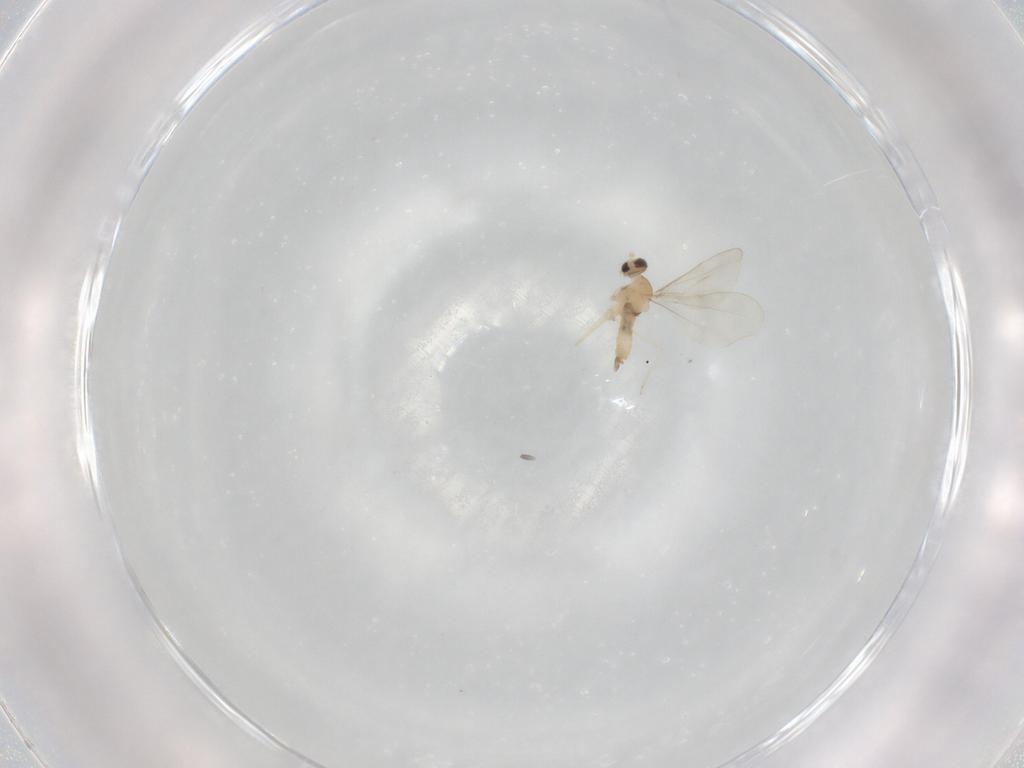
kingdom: Animalia
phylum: Arthropoda
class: Insecta
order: Diptera
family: Cecidomyiidae
